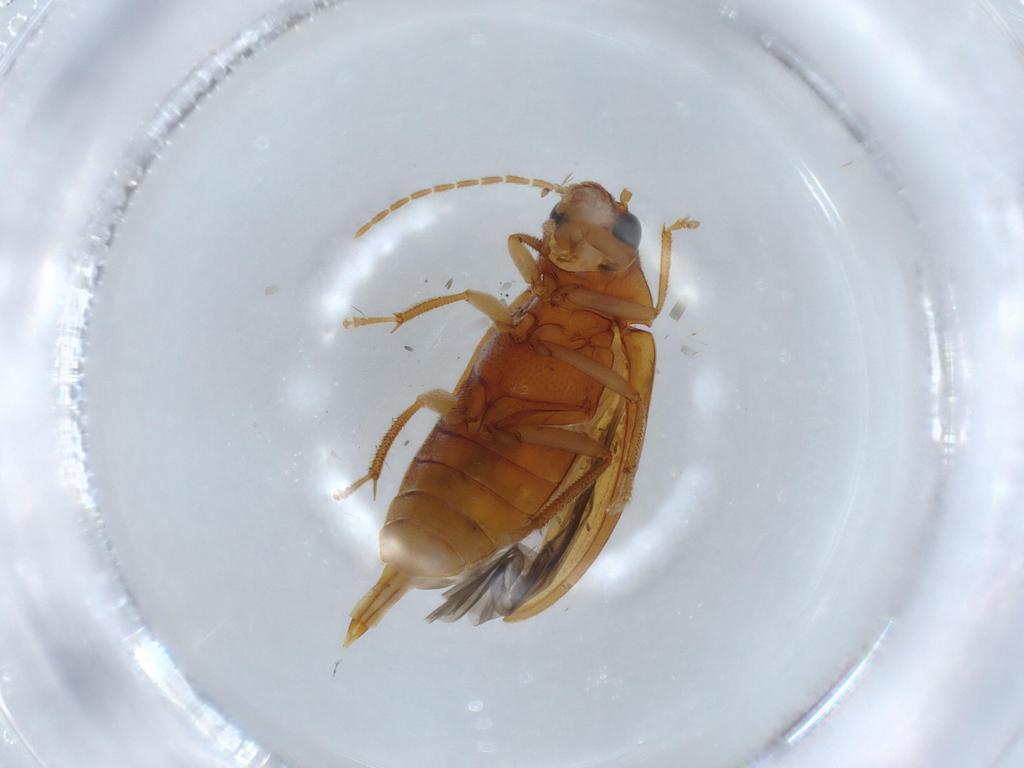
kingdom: Animalia
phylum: Arthropoda
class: Insecta
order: Coleoptera
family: Ptilodactylidae
